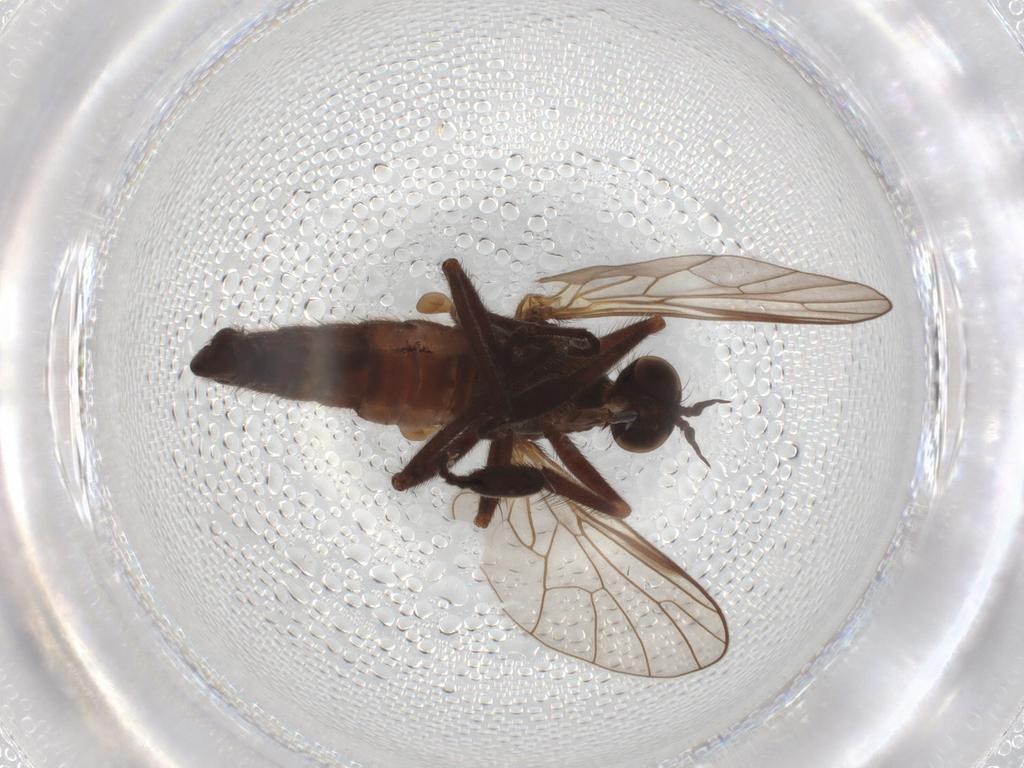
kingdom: Animalia
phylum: Arthropoda
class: Insecta
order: Diptera
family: Empididae
